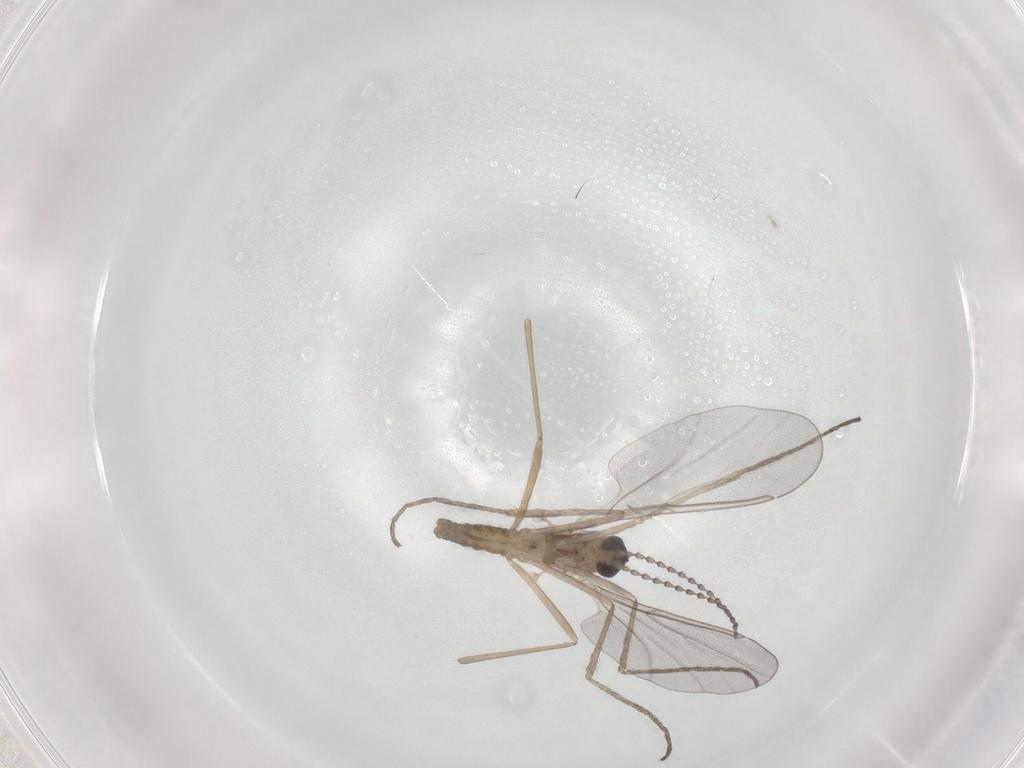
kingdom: Animalia
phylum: Arthropoda
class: Insecta
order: Diptera
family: Cecidomyiidae
